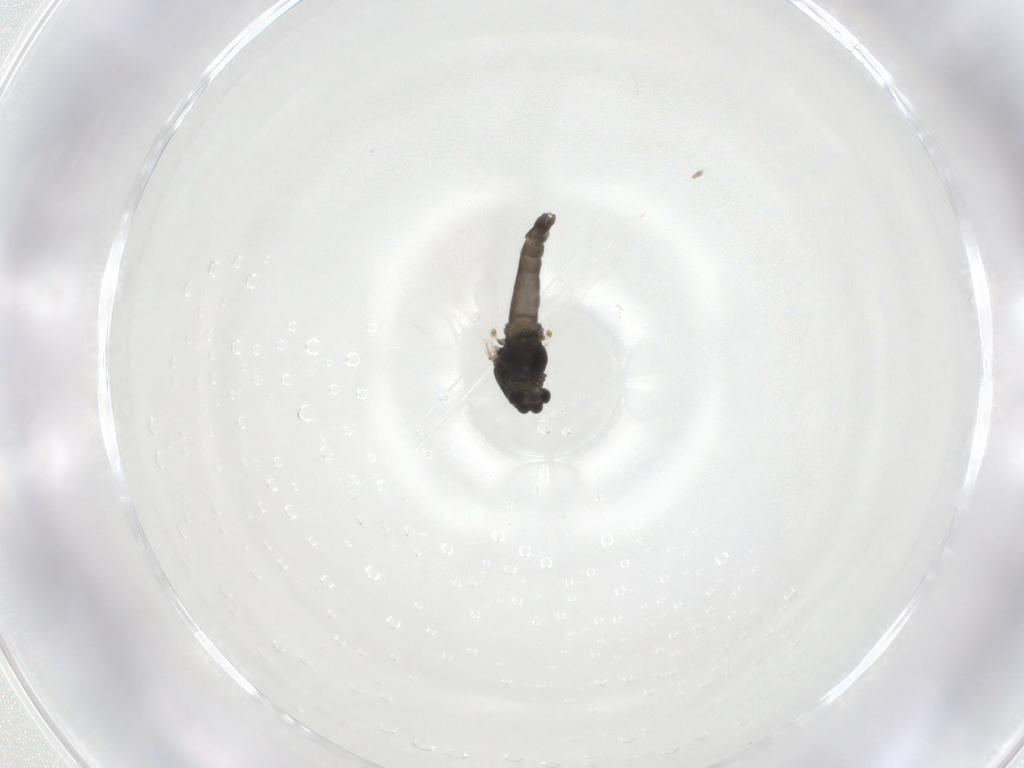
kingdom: Animalia
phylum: Arthropoda
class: Insecta
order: Diptera
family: Chironomidae
